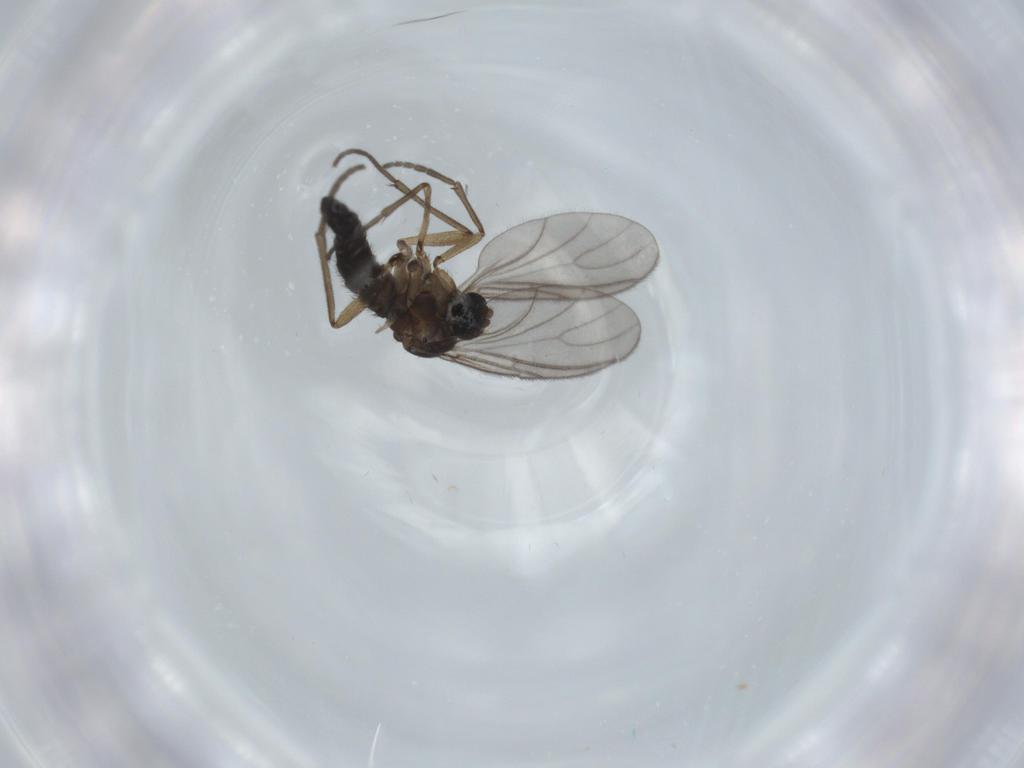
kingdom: Animalia
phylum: Arthropoda
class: Insecta
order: Diptera
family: Sciaridae
